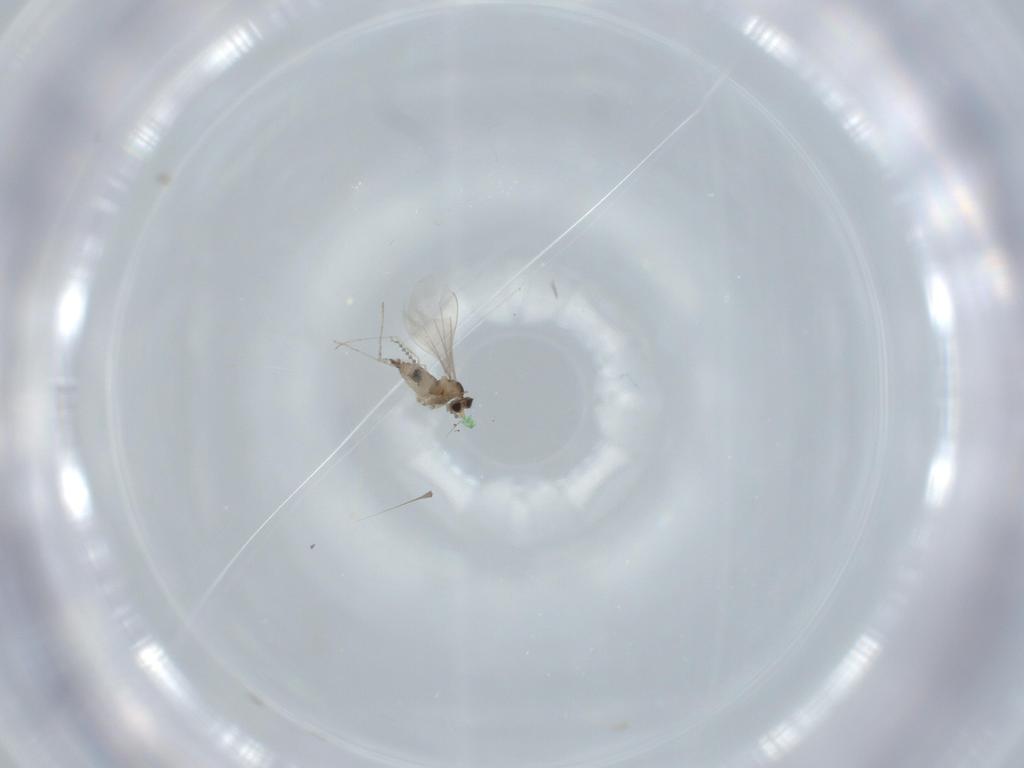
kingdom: Animalia
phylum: Arthropoda
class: Insecta
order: Diptera
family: Cecidomyiidae
